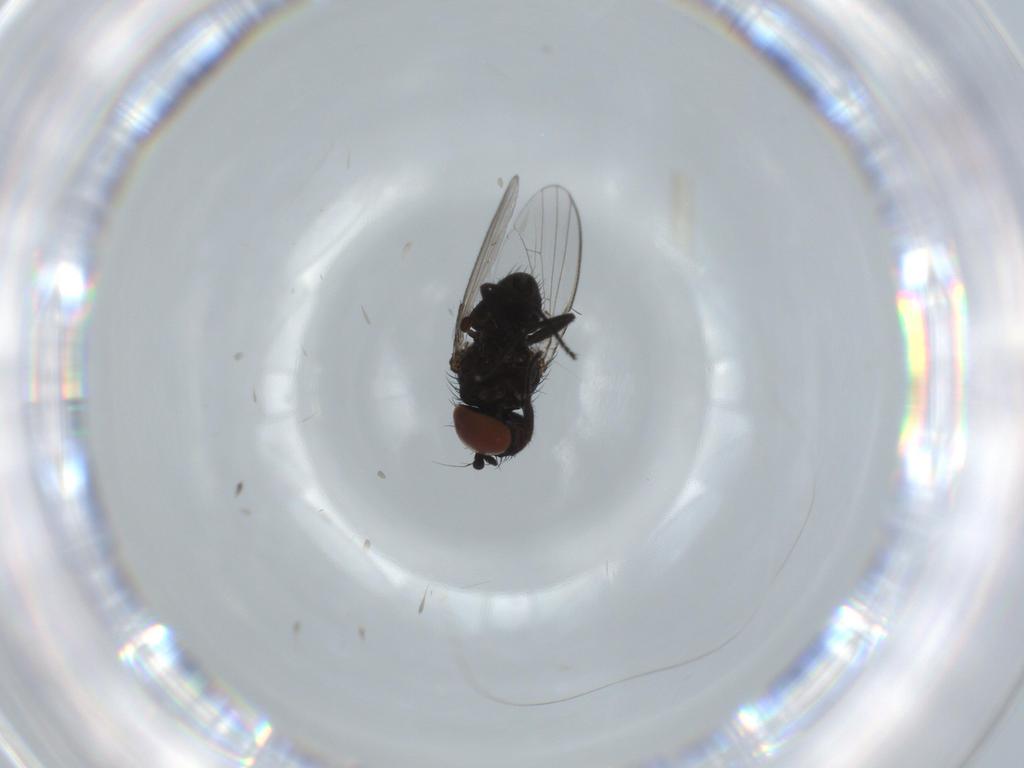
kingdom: Animalia
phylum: Arthropoda
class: Insecta
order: Diptera
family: Milichiidae
